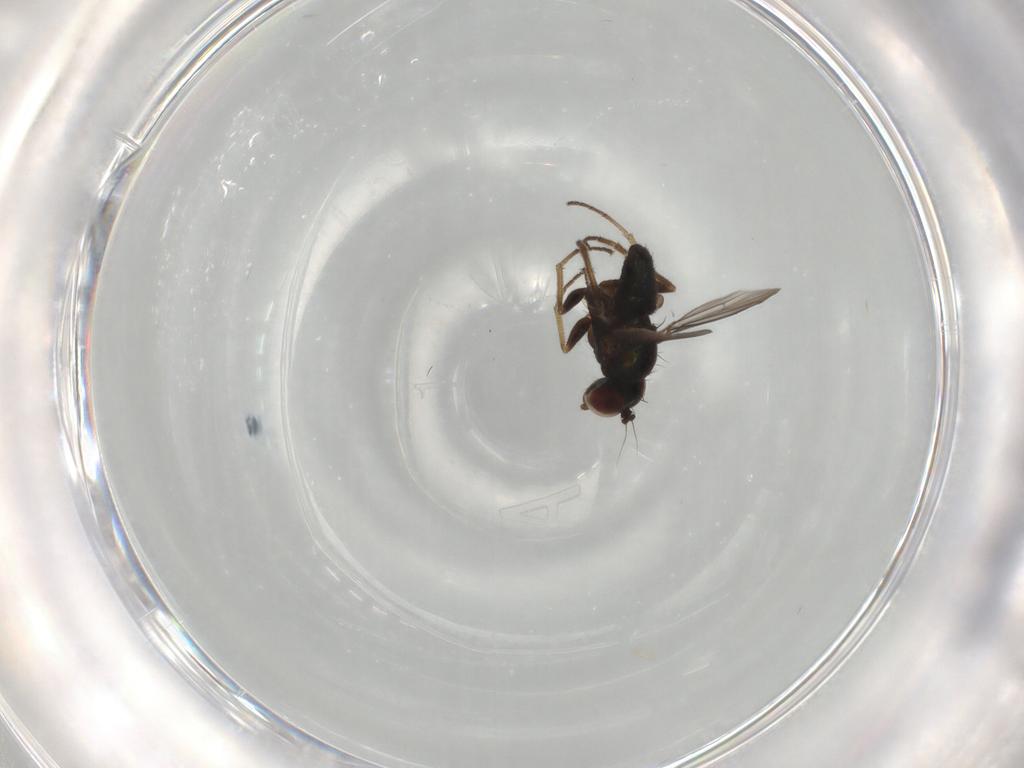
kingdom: Animalia
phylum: Arthropoda
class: Insecta
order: Diptera
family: Dolichopodidae
